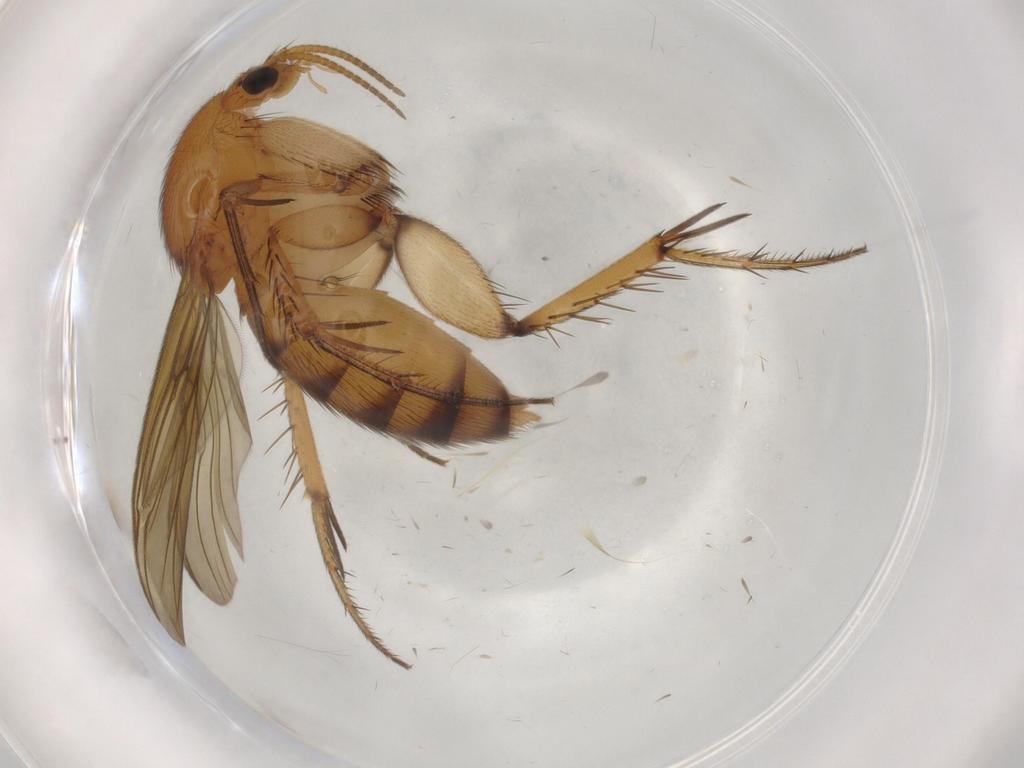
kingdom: Animalia
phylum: Arthropoda
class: Insecta
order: Diptera
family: Mycetophilidae
